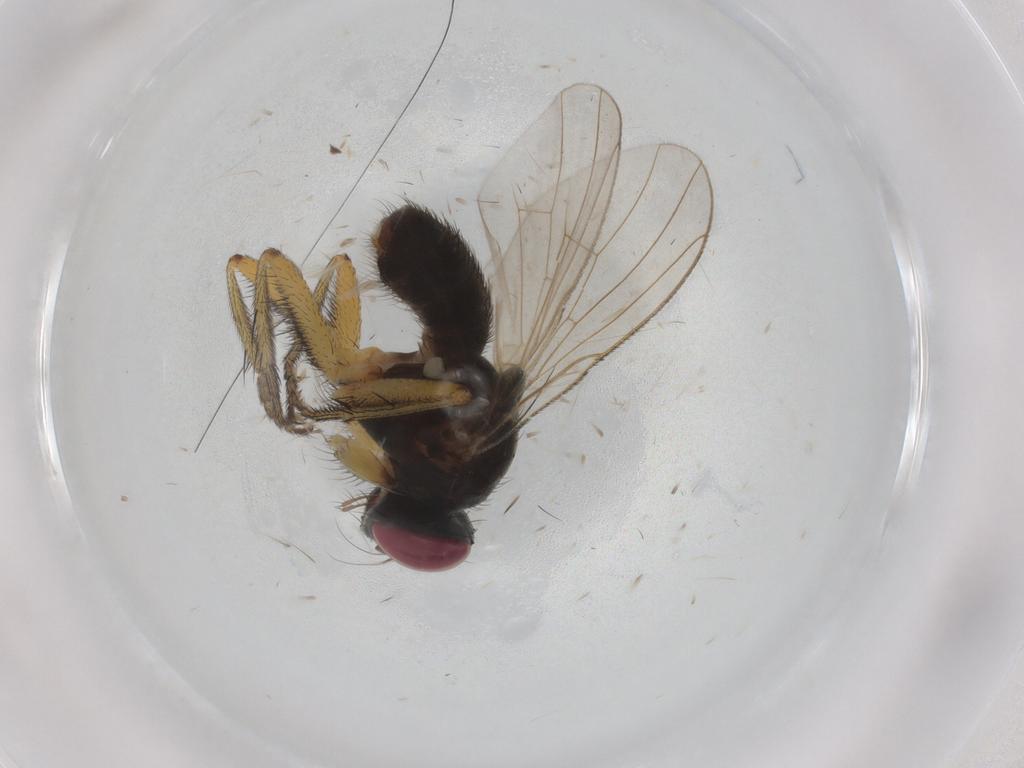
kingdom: Animalia
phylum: Arthropoda
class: Insecta
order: Diptera
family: Muscidae
